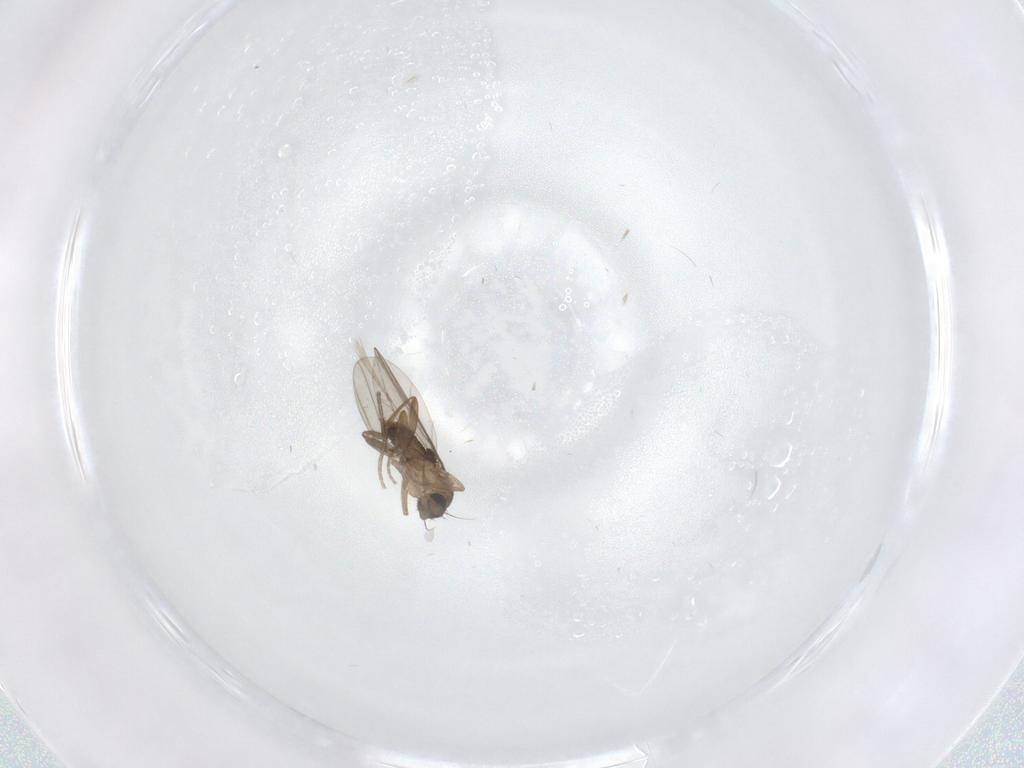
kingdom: Animalia
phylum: Arthropoda
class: Insecta
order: Diptera
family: Phoridae
